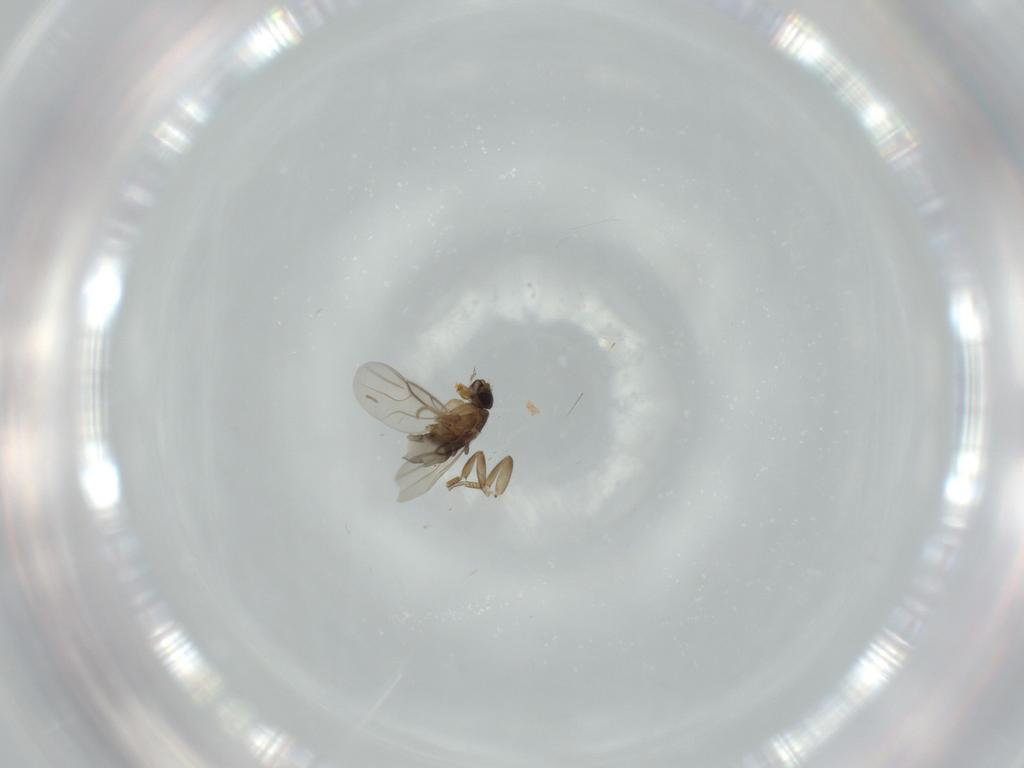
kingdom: Animalia
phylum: Arthropoda
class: Insecta
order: Diptera
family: Phoridae
